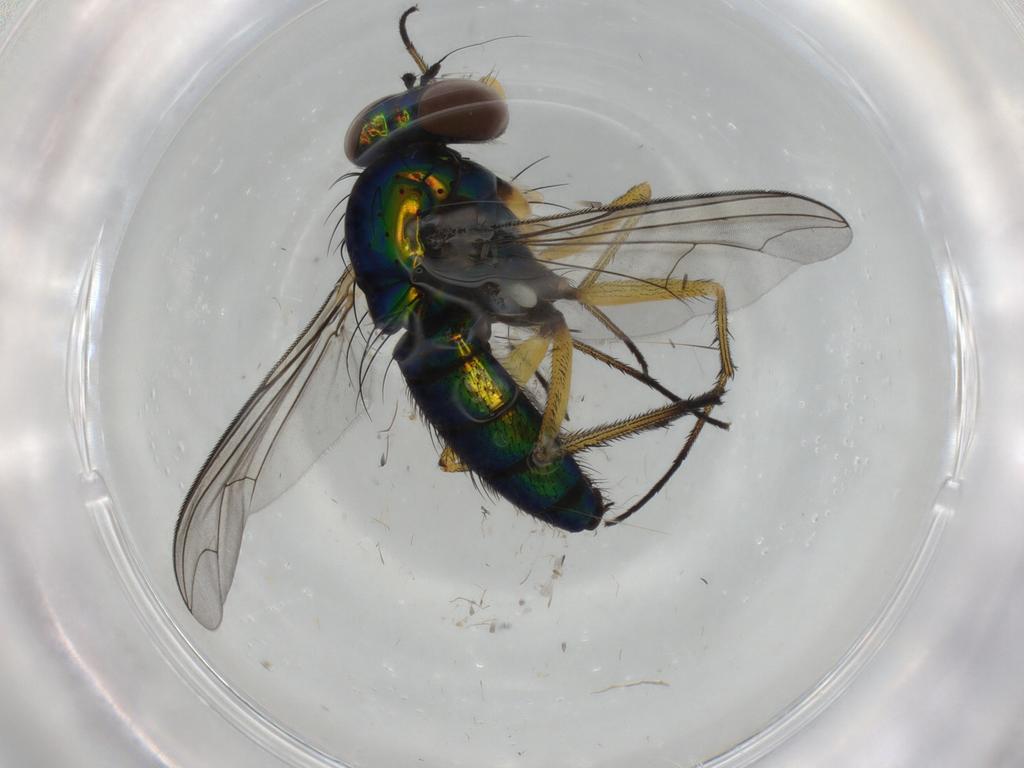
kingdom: Animalia
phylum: Arthropoda
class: Insecta
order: Diptera
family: Dolichopodidae
